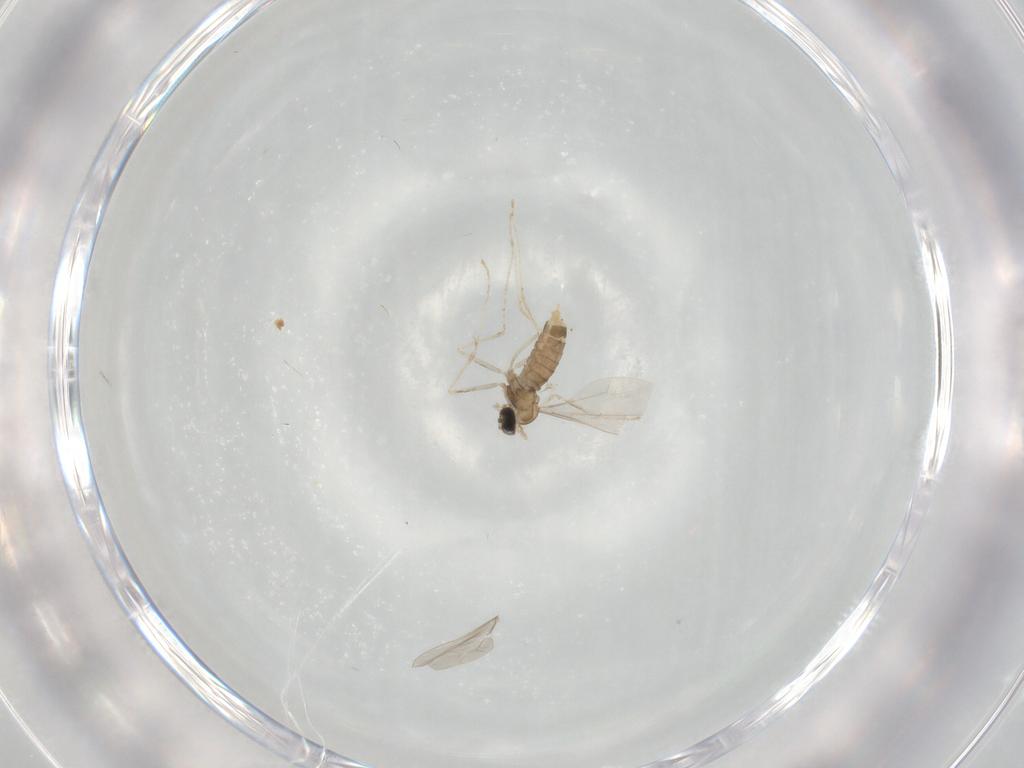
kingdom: Animalia
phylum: Arthropoda
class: Insecta
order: Diptera
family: Cecidomyiidae
